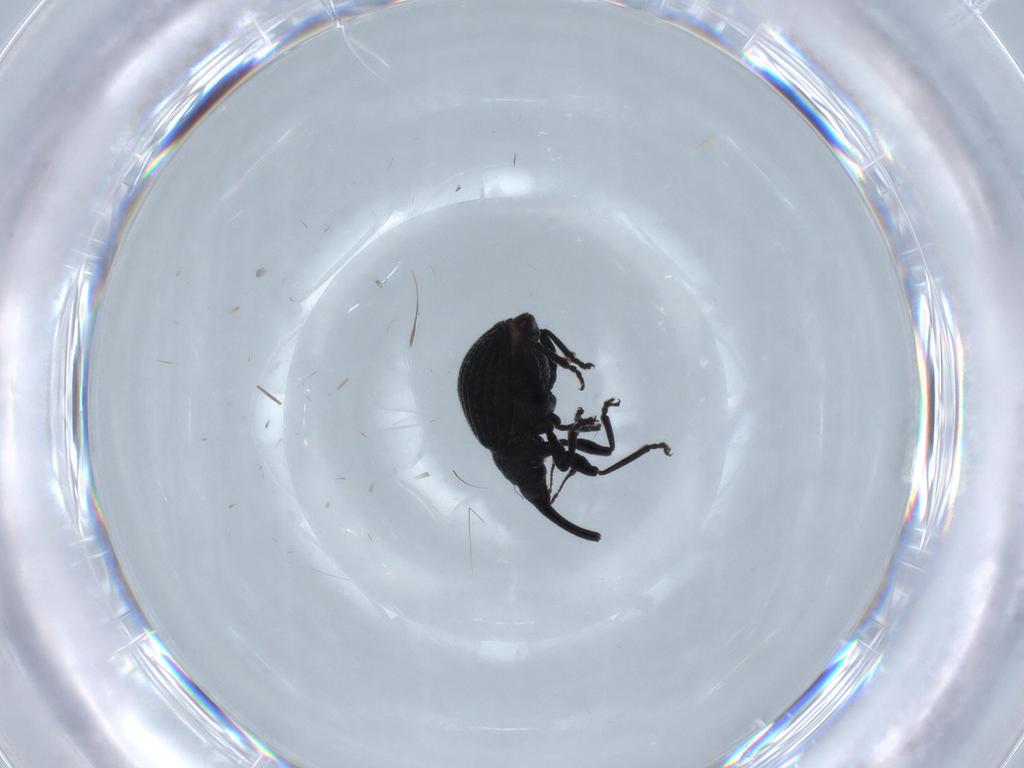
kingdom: Animalia
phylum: Arthropoda
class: Insecta
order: Coleoptera
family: Brentidae
